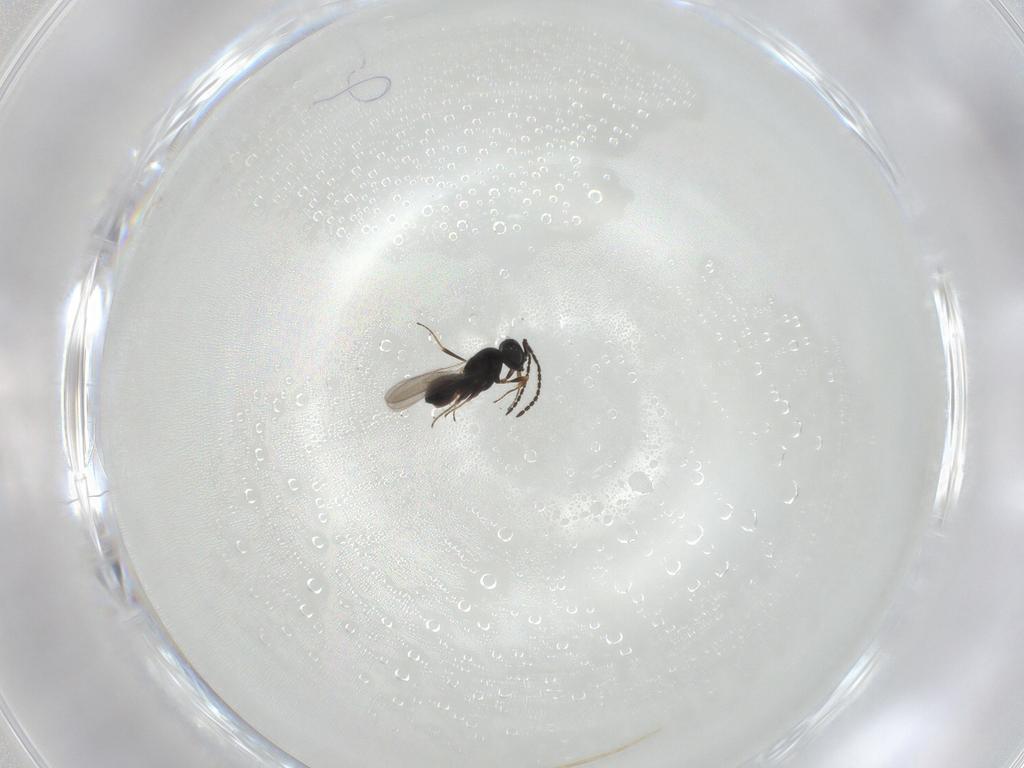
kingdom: Animalia
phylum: Arthropoda
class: Insecta
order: Hymenoptera
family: Scelionidae
